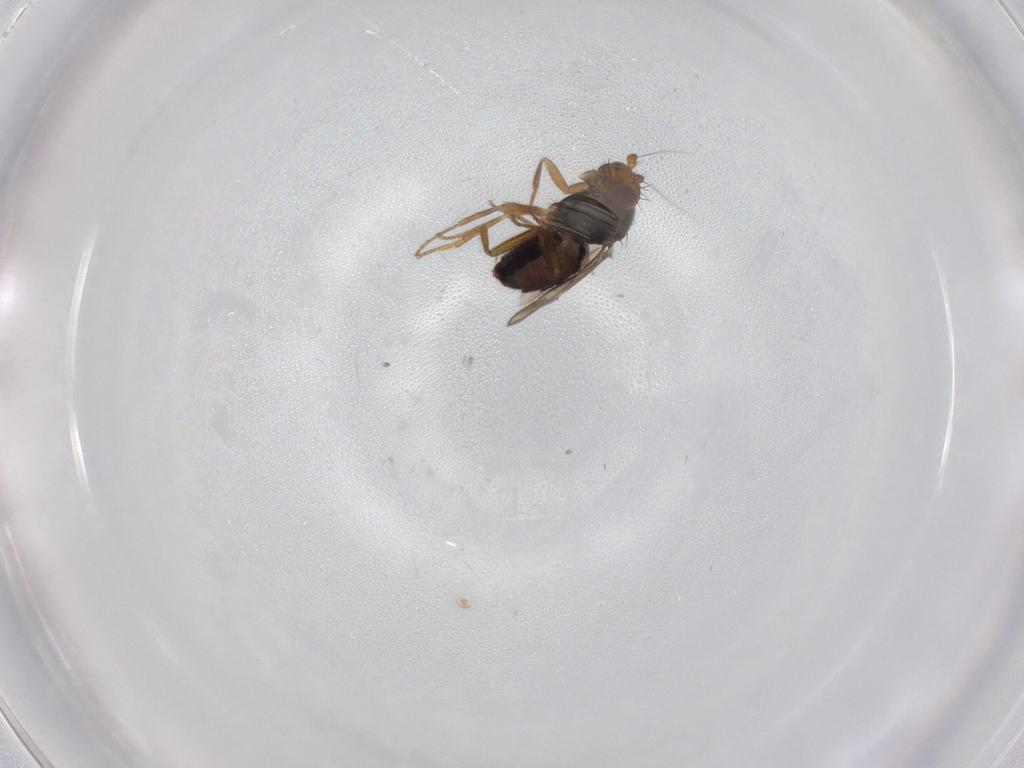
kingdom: Animalia
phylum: Arthropoda
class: Insecta
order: Diptera
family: Sphaeroceridae
